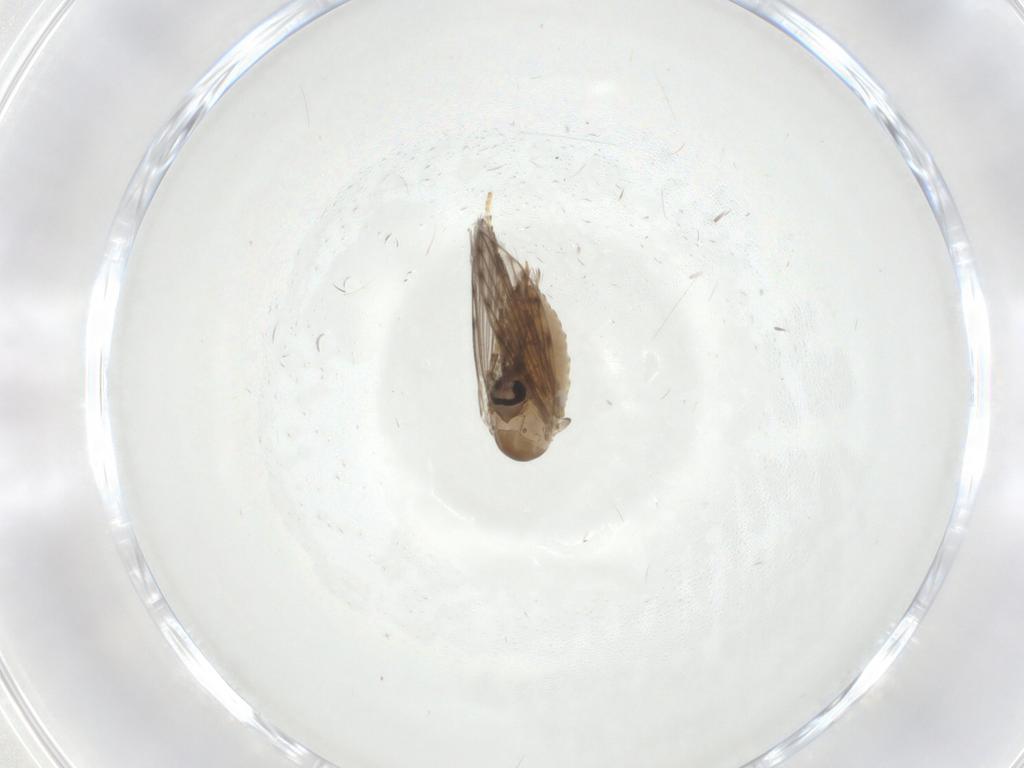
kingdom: Animalia
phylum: Arthropoda
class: Insecta
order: Diptera
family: Psychodidae
